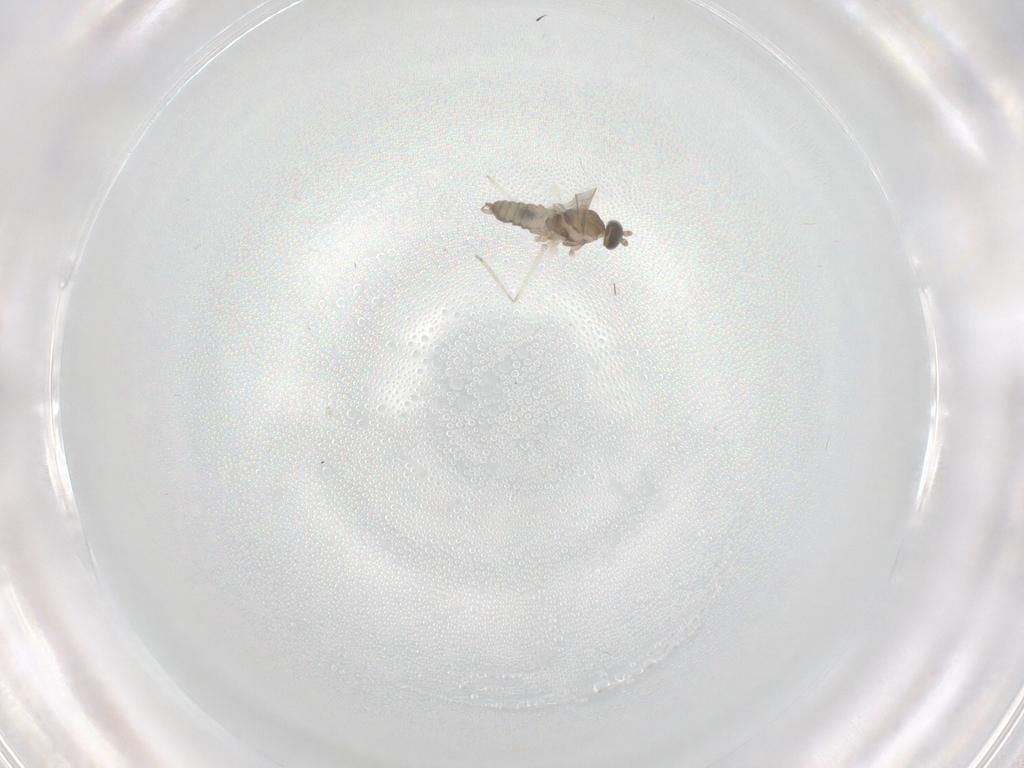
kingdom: Animalia
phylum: Arthropoda
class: Insecta
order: Diptera
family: Cecidomyiidae
